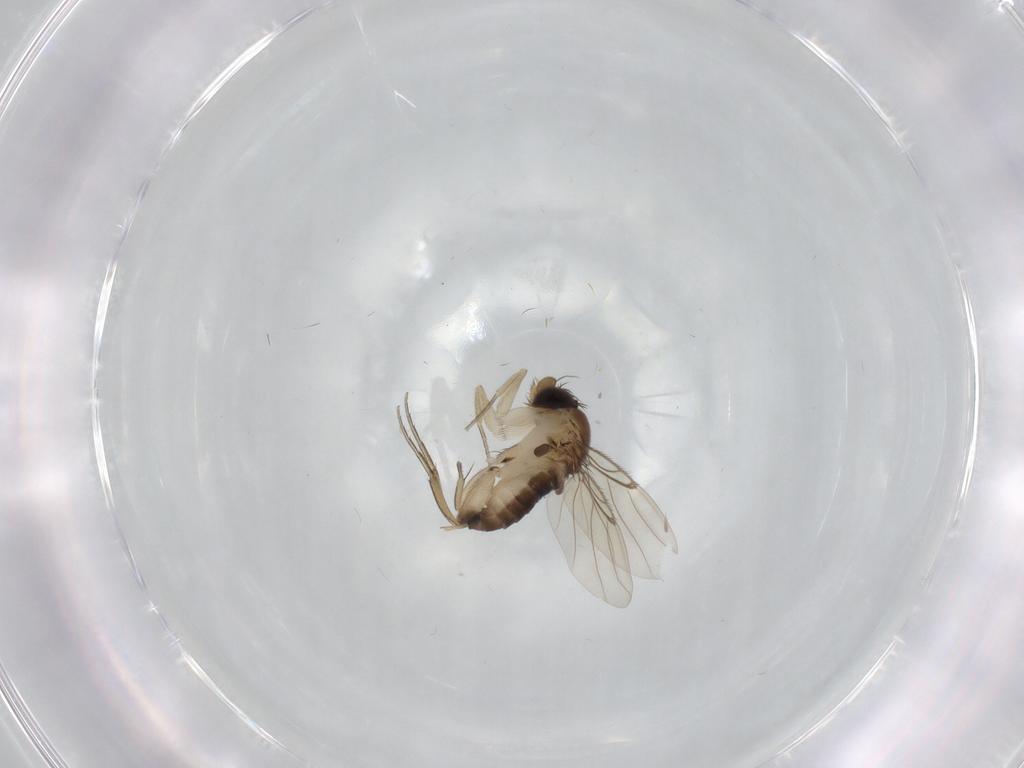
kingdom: Animalia
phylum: Arthropoda
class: Insecta
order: Diptera
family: Phoridae
